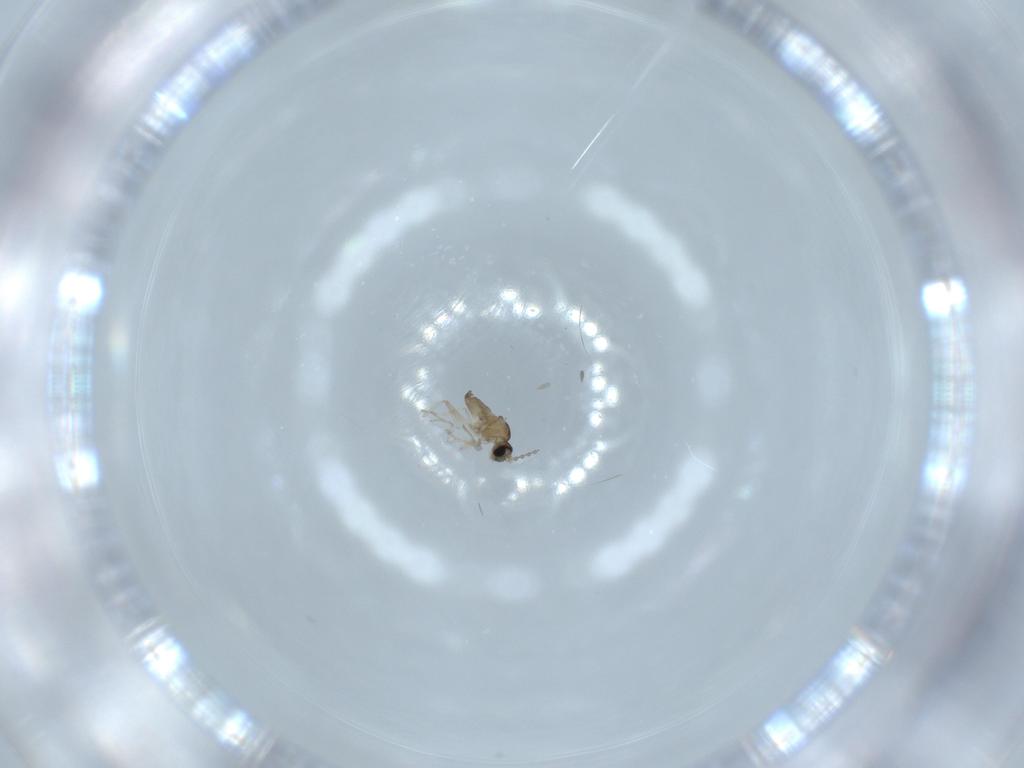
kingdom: Animalia
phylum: Arthropoda
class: Insecta
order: Diptera
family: Cecidomyiidae
